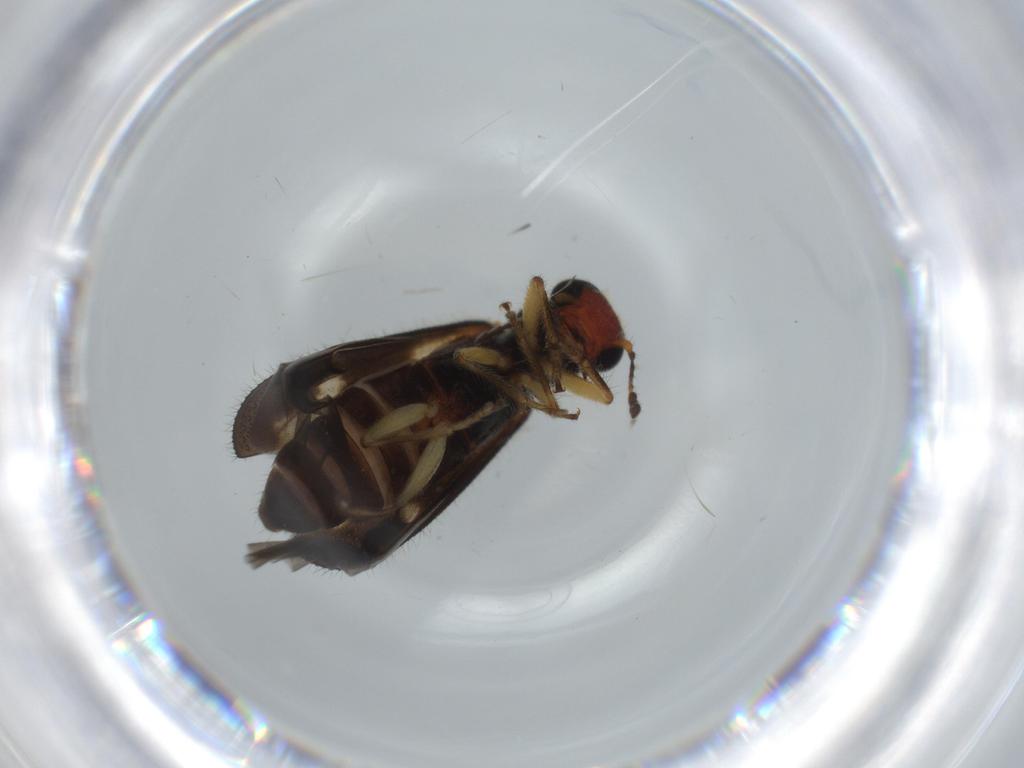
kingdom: Animalia
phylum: Arthropoda
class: Insecta
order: Coleoptera
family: Cleridae
